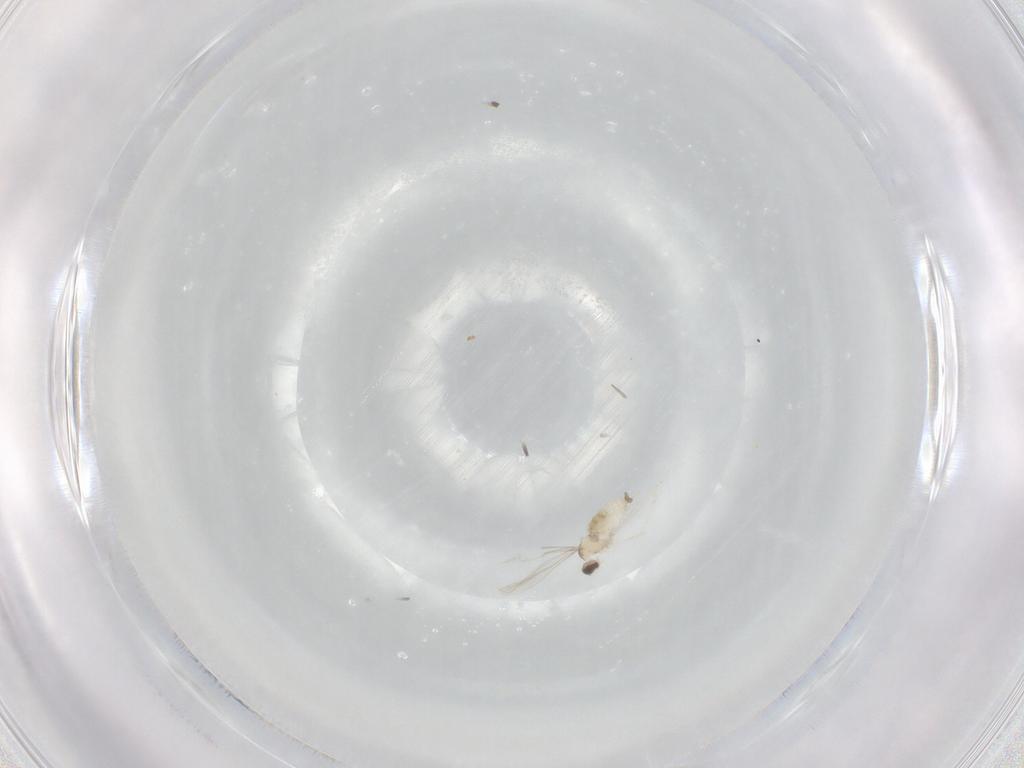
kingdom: Animalia
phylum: Arthropoda
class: Insecta
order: Diptera
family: Cecidomyiidae
